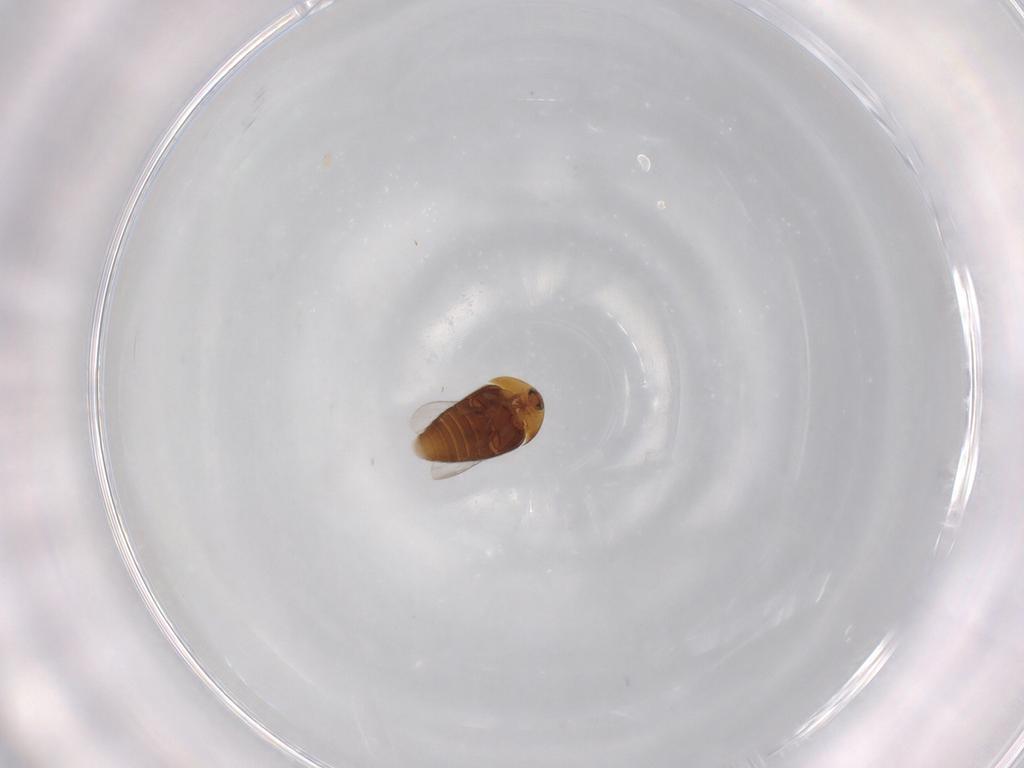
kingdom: Animalia
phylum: Arthropoda
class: Insecta
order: Coleoptera
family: Corylophidae
